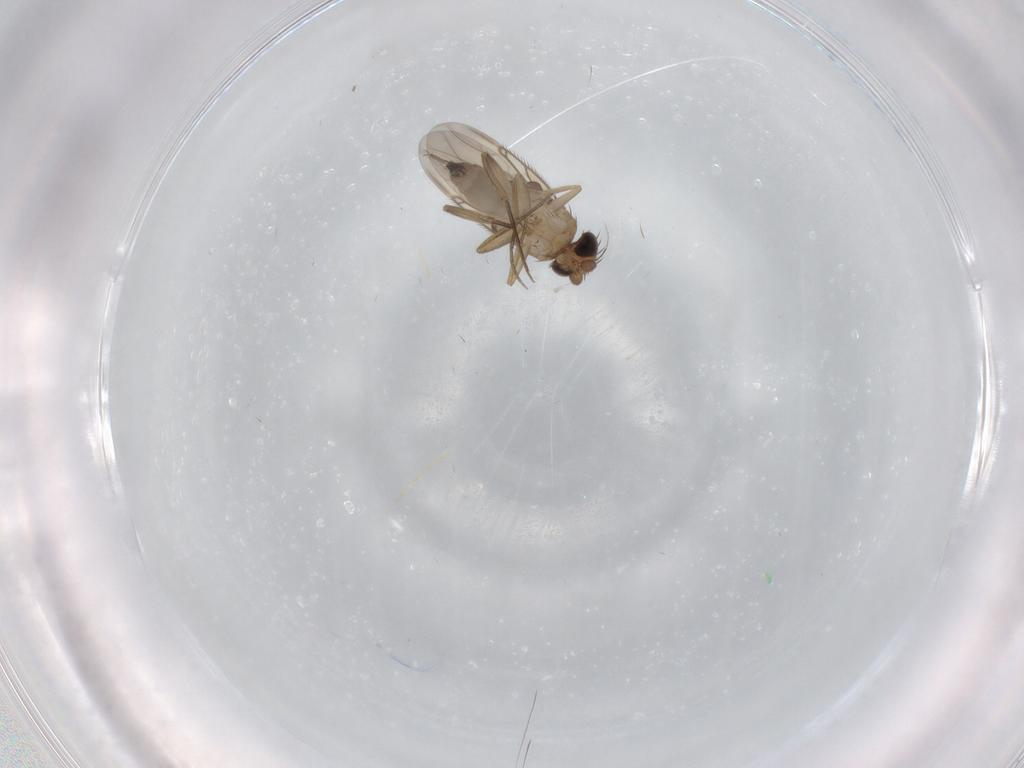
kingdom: Animalia
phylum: Arthropoda
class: Insecta
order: Diptera
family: Phoridae
